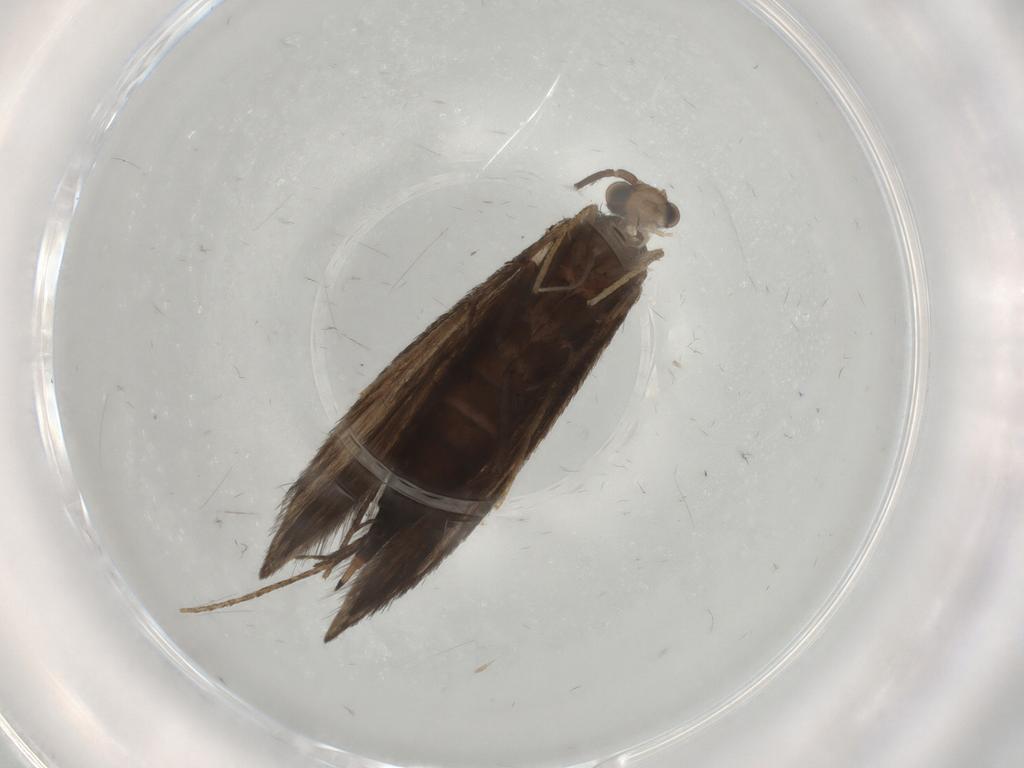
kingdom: Animalia
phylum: Arthropoda
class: Insecta
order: Trichoptera
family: Xiphocentronidae
